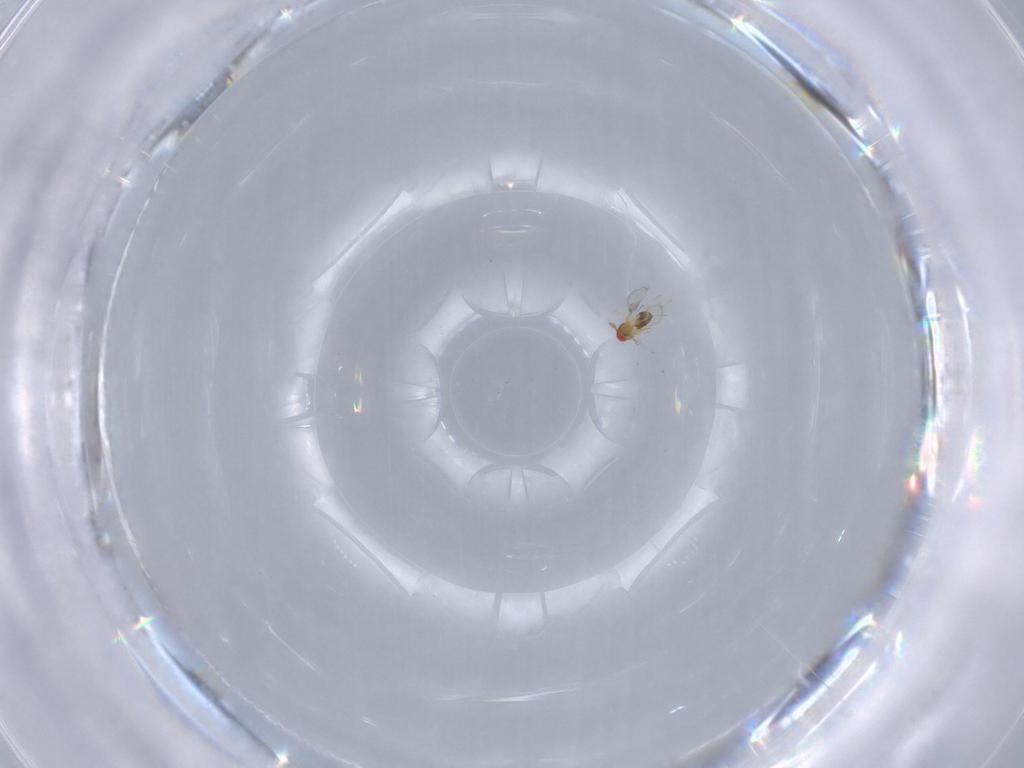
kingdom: Animalia
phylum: Arthropoda
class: Insecta
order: Hymenoptera
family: Trichogrammatidae
